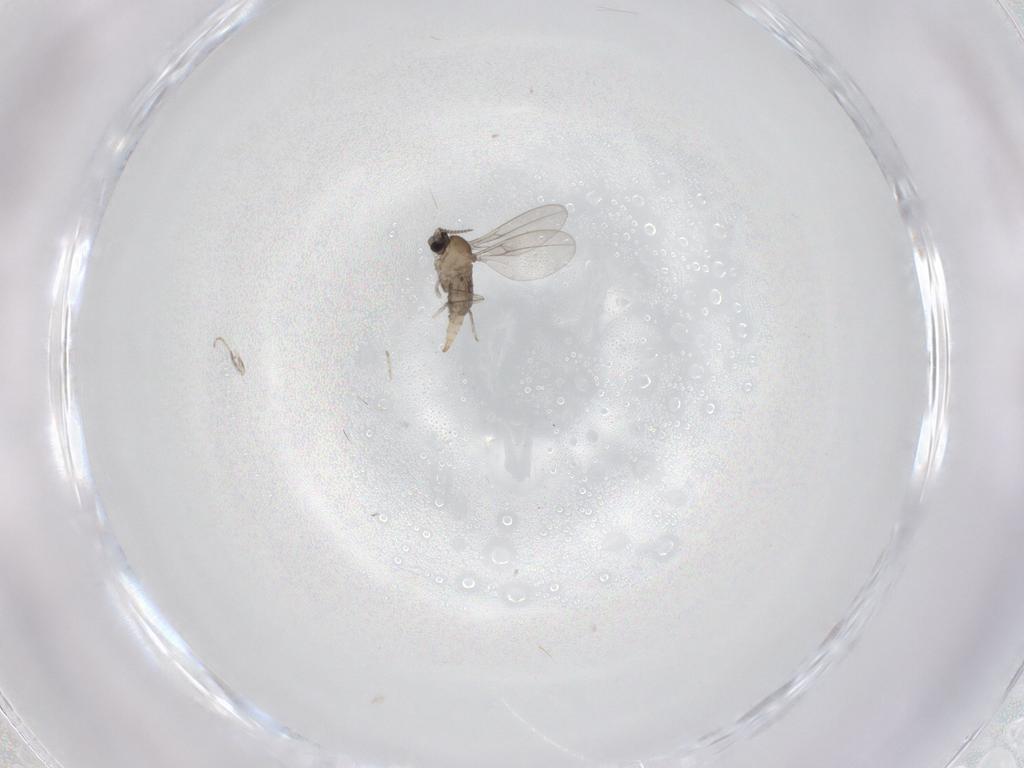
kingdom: Animalia
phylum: Arthropoda
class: Insecta
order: Diptera
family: Cecidomyiidae
